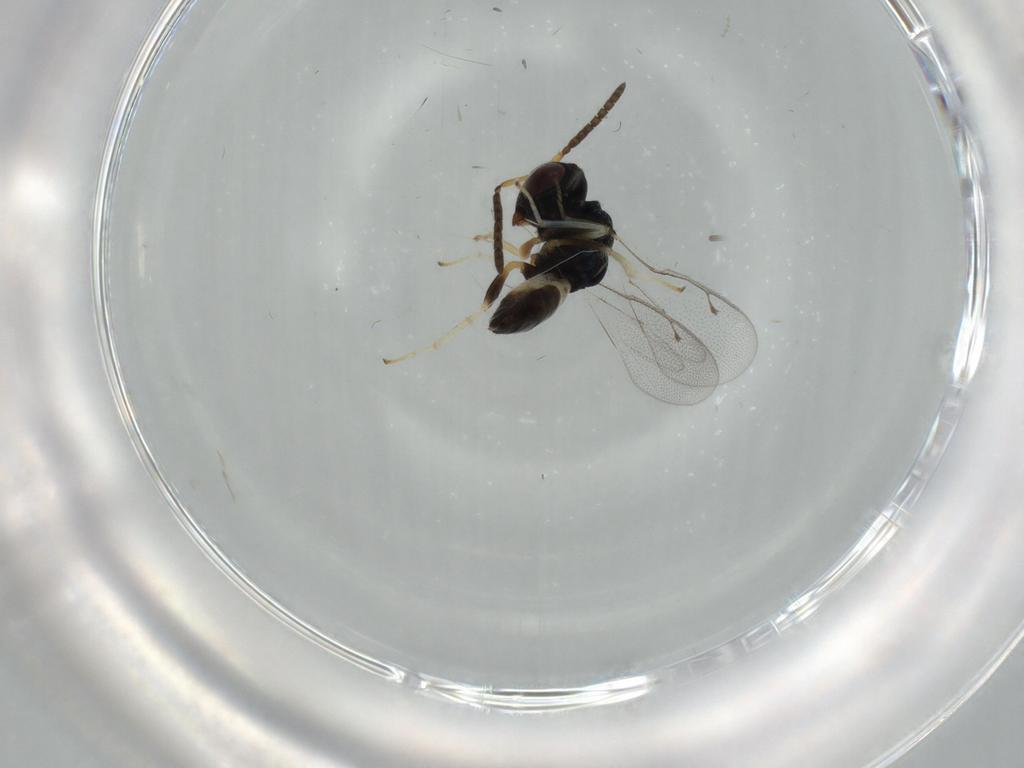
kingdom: Animalia
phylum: Arthropoda
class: Insecta
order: Hymenoptera
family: Pteromalidae
